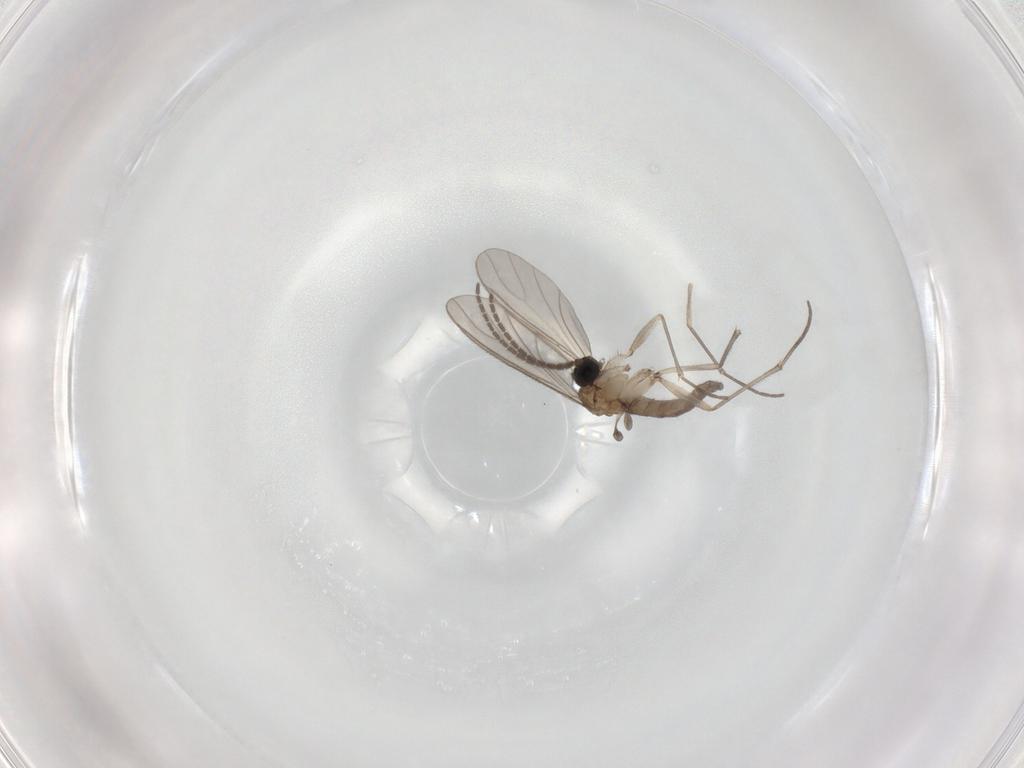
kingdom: Animalia
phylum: Arthropoda
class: Insecta
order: Diptera
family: Sciaridae
